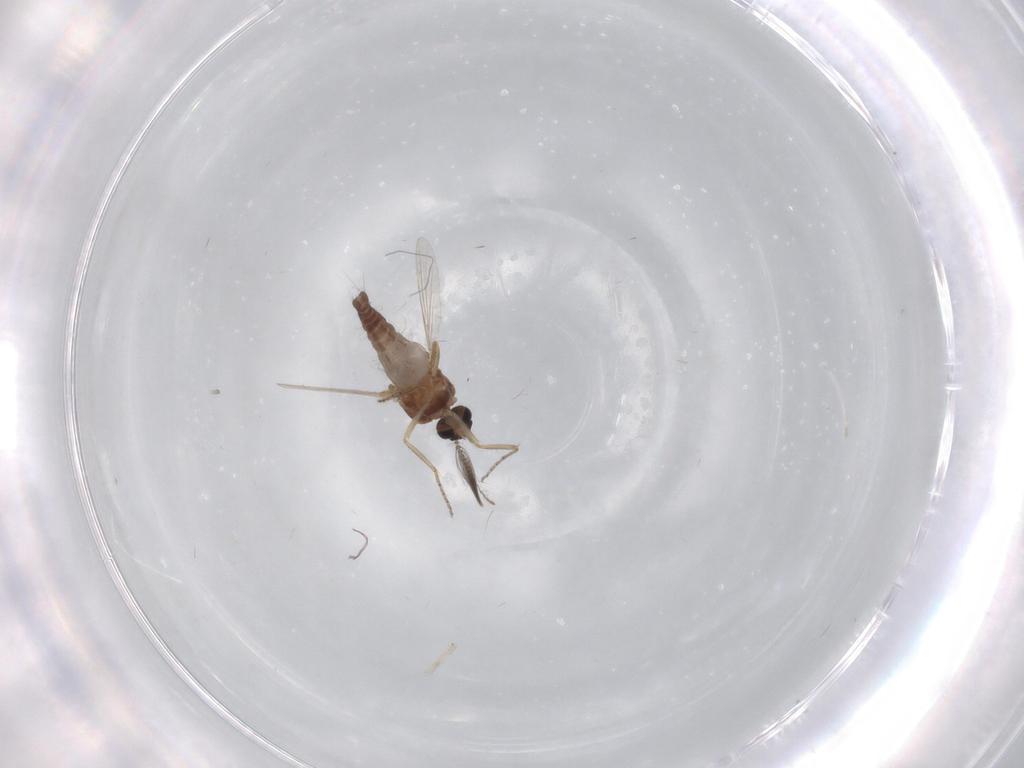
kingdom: Animalia
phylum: Arthropoda
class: Insecta
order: Diptera
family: Ceratopogonidae
